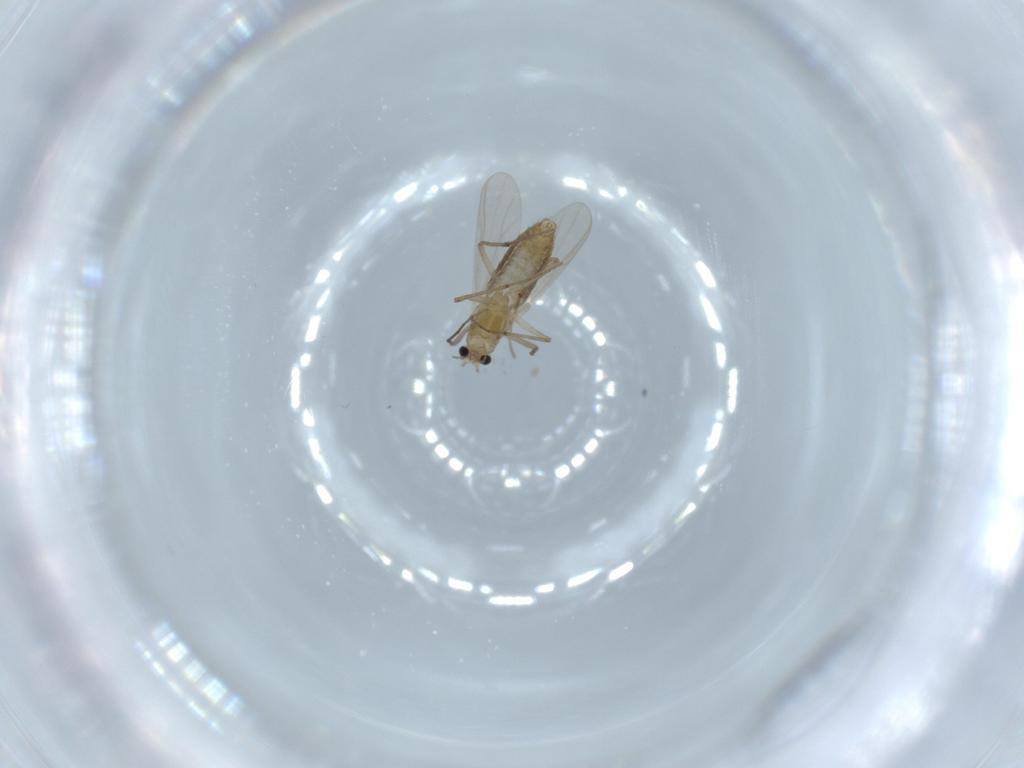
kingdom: Animalia
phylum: Arthropoda
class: Insecta
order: Diptera
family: Chironomidae
